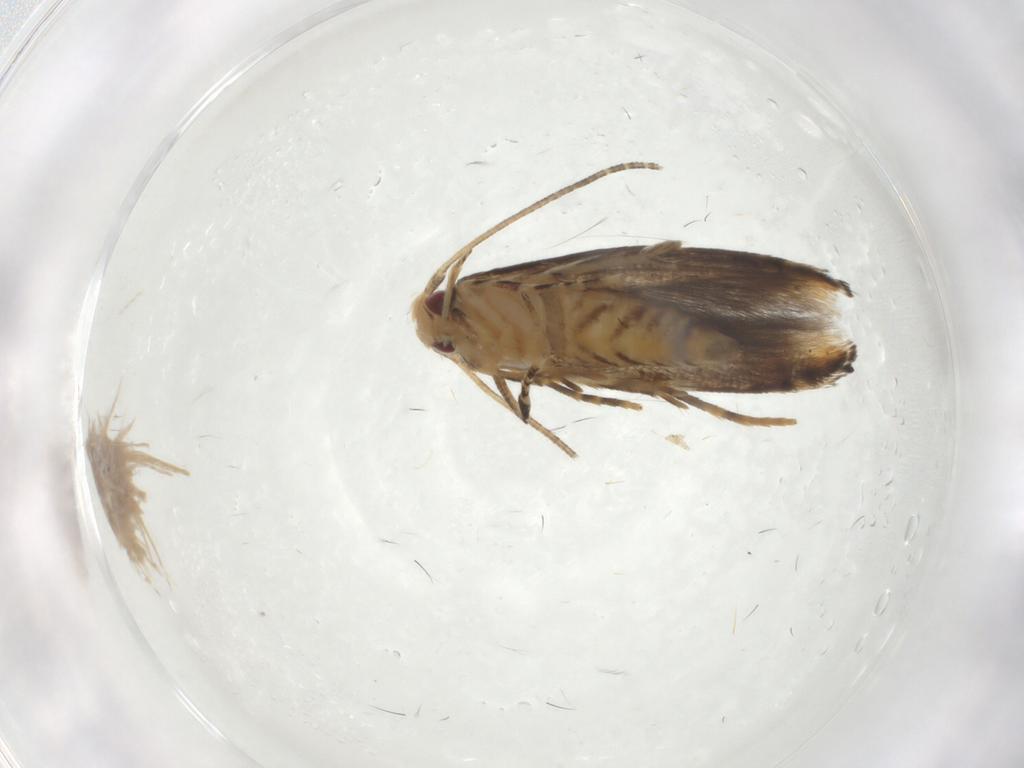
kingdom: Animalia
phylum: Arthropoda
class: Insecta
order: Lepidoptera
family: Momphidae
